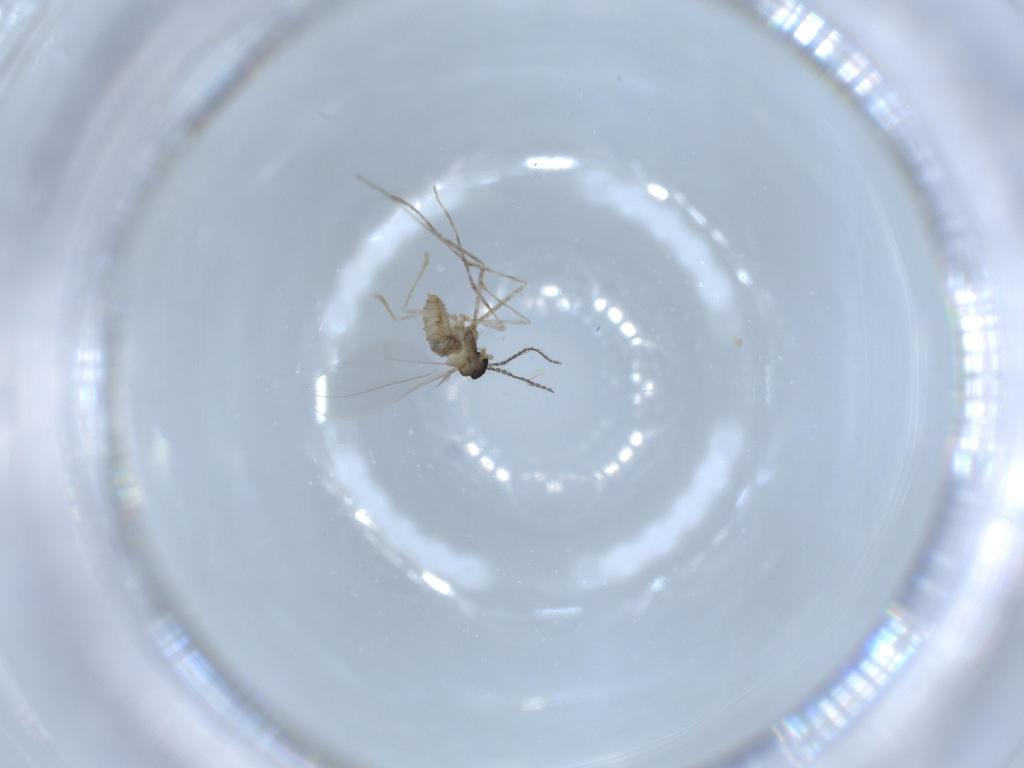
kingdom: Animalia
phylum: Arthropoda
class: Insecta
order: Diptera
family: Cecidomyiidae
